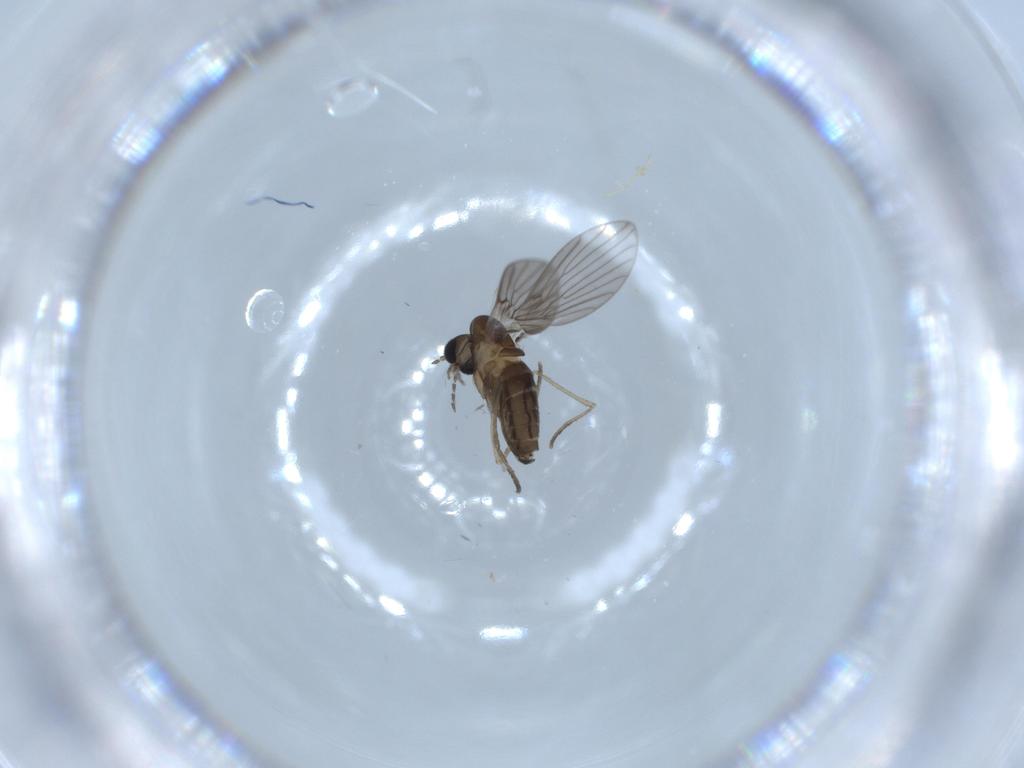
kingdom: Animalia
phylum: Arthropoda
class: Insecta
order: Diptera
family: Psychodidae
